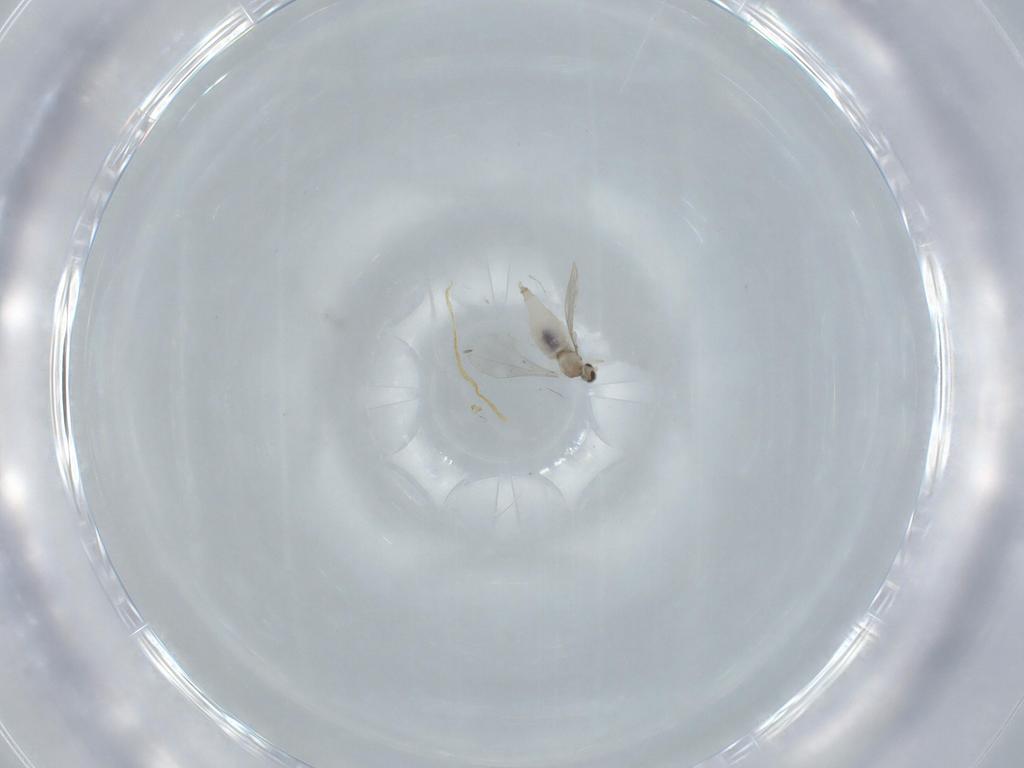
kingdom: Animalia
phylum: Arthropoda
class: Insecta
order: Diptera
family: Cecidomyiidae
